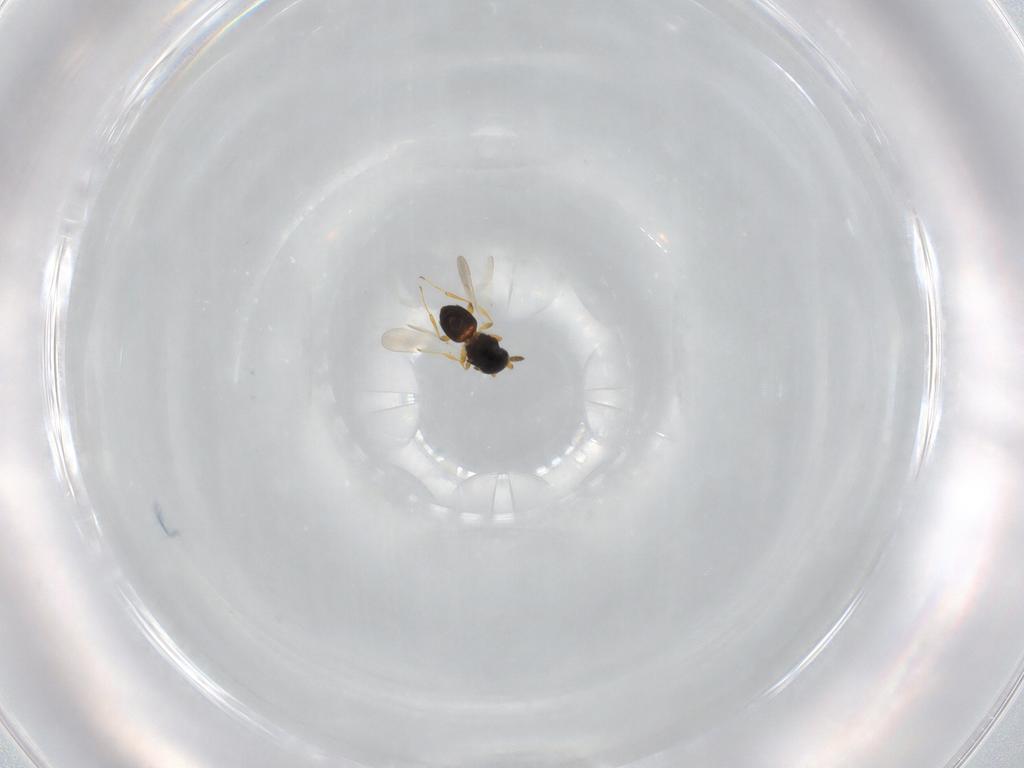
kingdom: Animalia
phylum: Arthropoda
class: Insecta
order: Hymenoptera
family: Platygastridae
